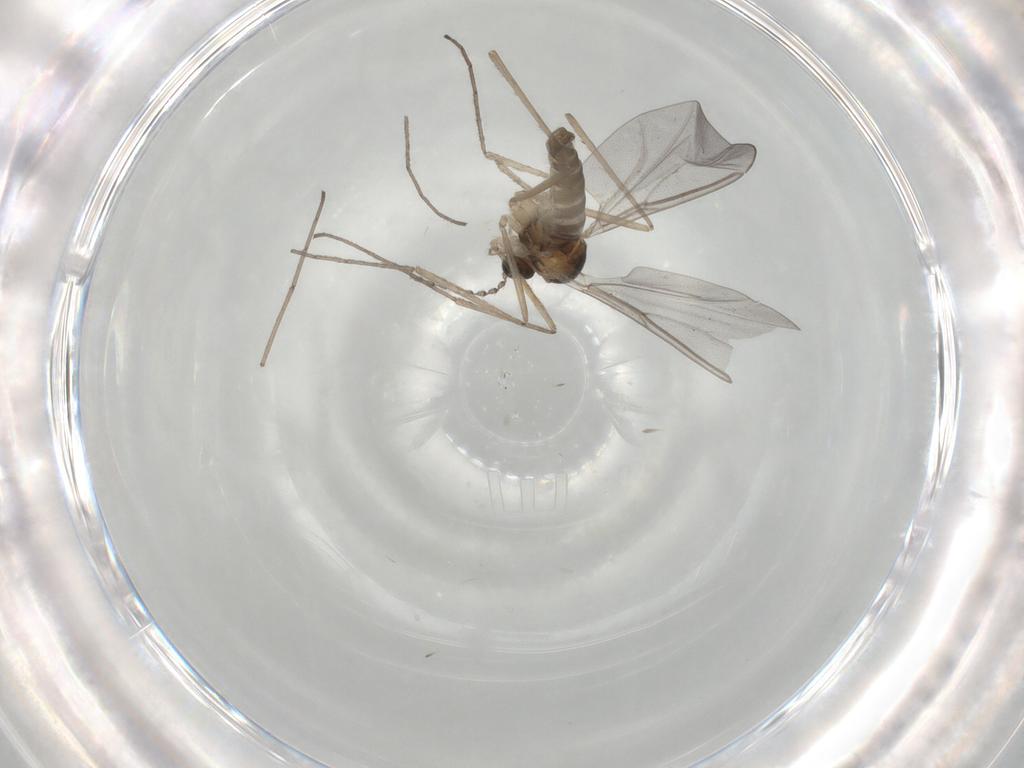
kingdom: Animalia
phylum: Arthropoda
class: Insecta
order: Diptera
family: Cecidomyiidae
